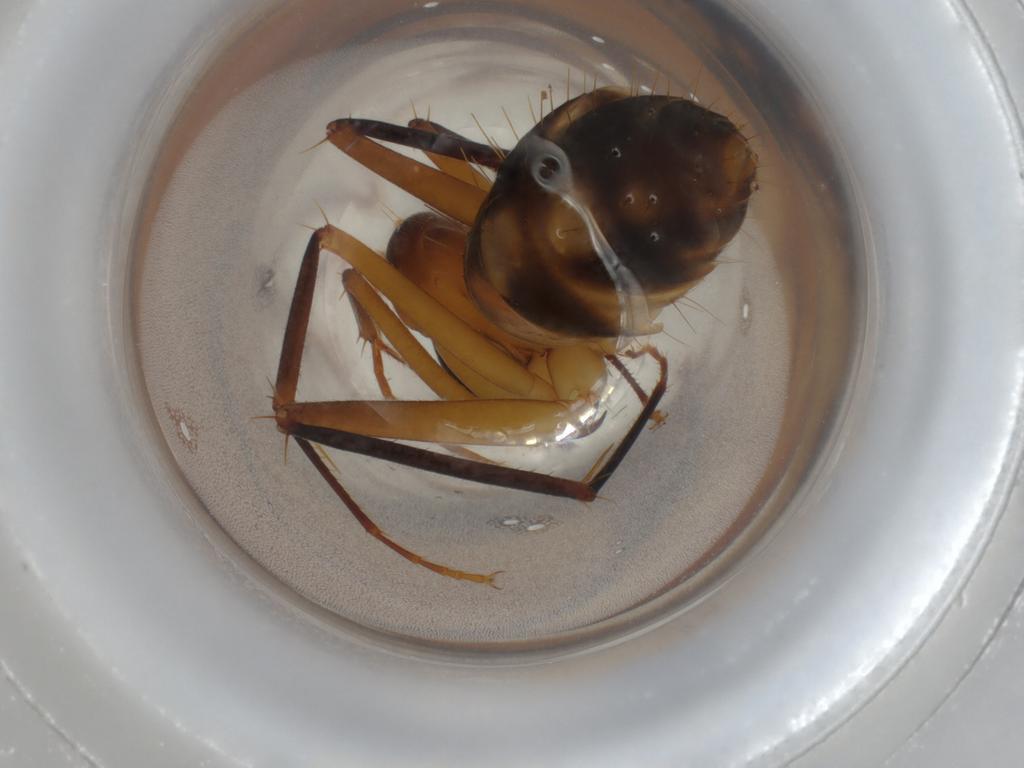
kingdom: Animalia
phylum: Arthropoda
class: Insecta
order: Hymenoptera
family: Formicidae
